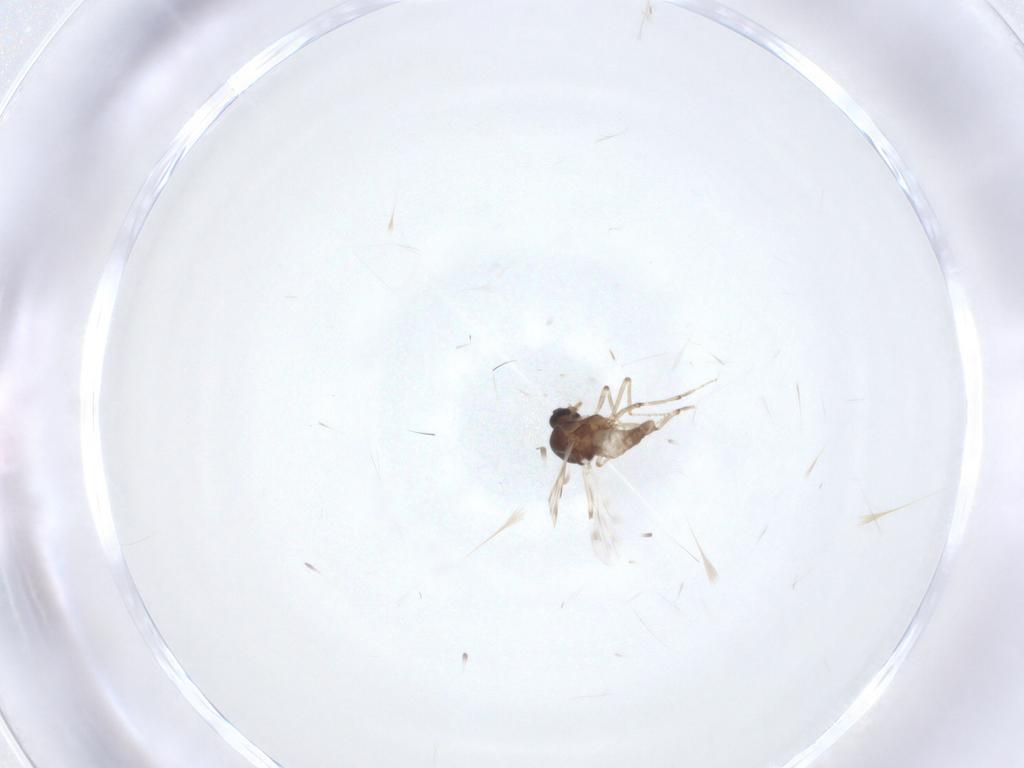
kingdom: Animalia
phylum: Arthropoda
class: Insecta
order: Diptera
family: Ceratopogonidae
